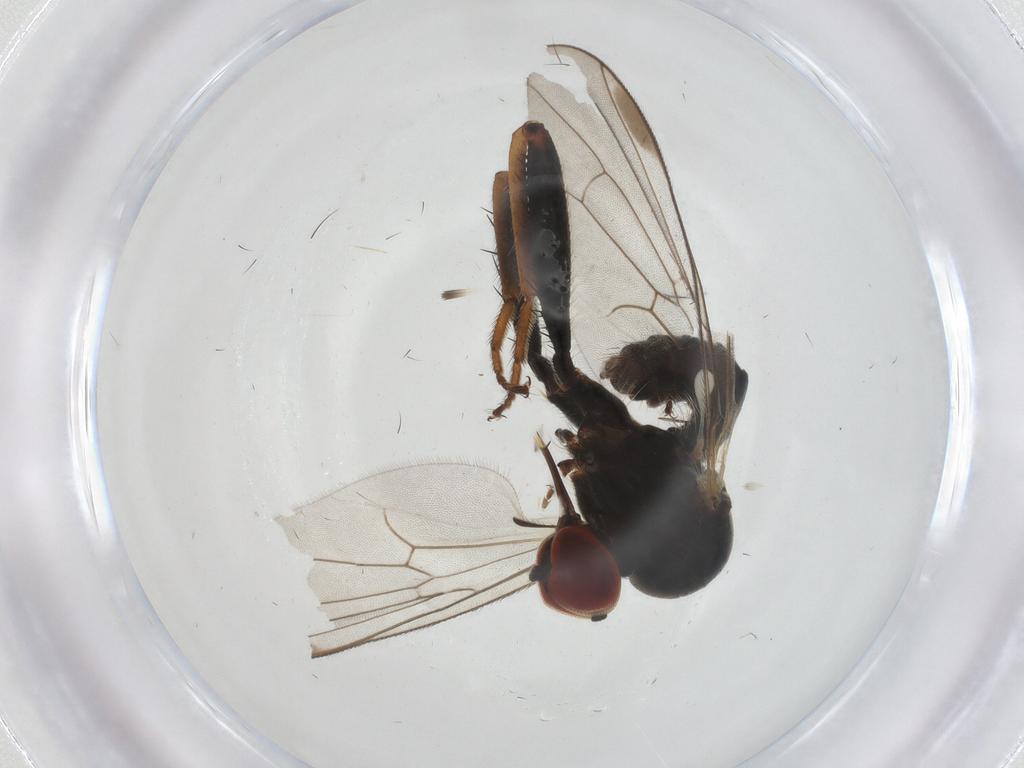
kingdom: Animalia
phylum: Arthropoda
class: Insecta
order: Diptera
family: Hybotidae
